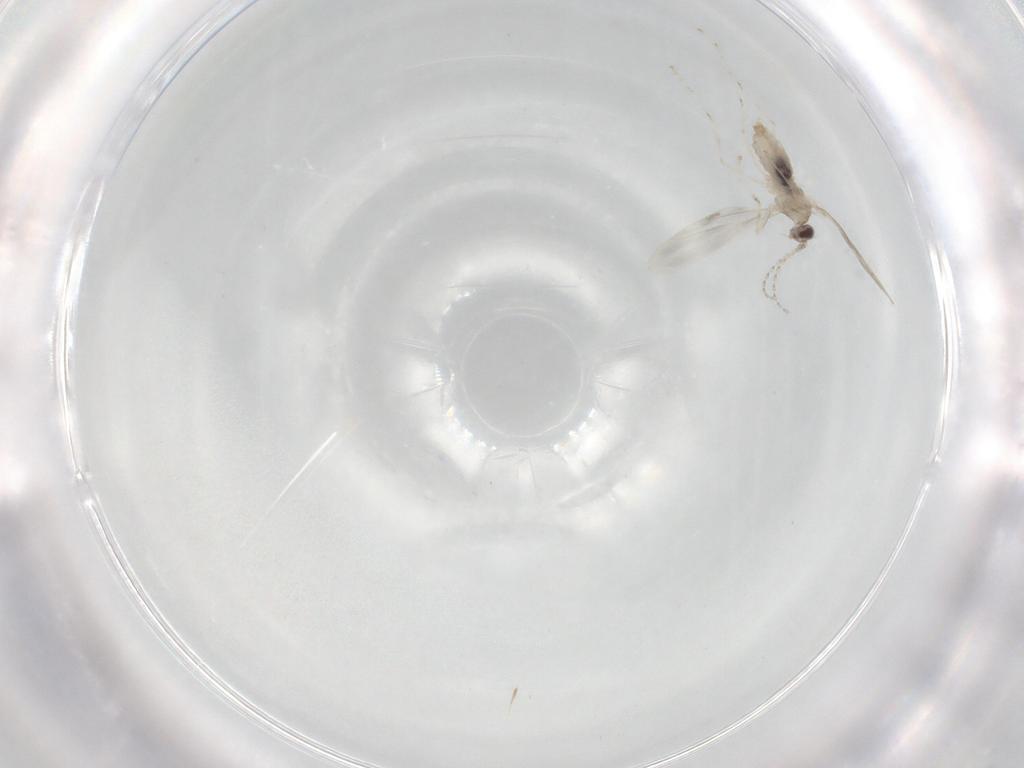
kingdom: Animalia
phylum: Arthropoda
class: Insecta
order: Diptera
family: Cecidomyiidae
